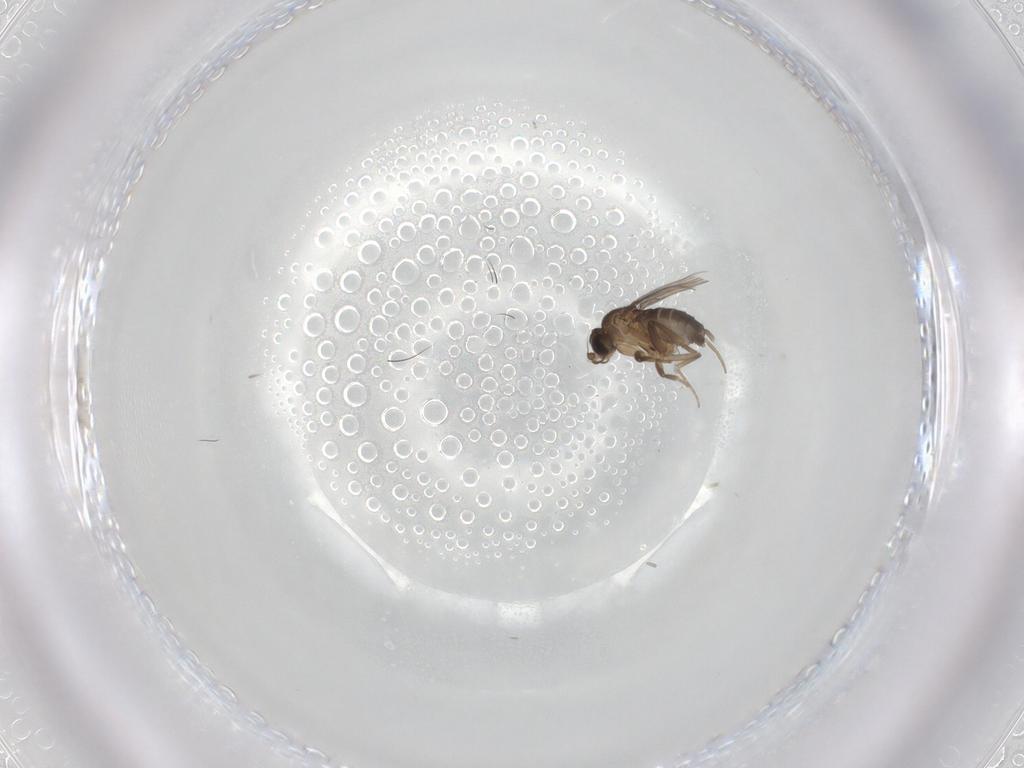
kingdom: Animalia
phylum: Arthropoda
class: Insecta
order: Diptera
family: Phoridae
